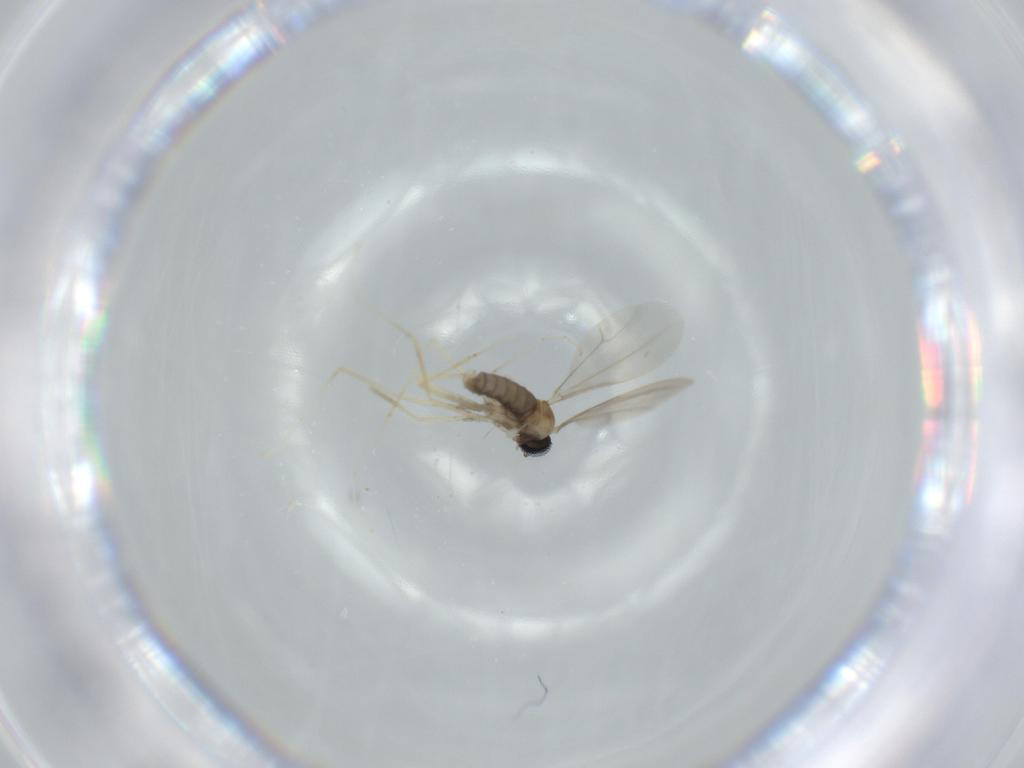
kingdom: Animalia
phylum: Arthropoda
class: Insecta
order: Diptera
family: Cecidomyiidae
